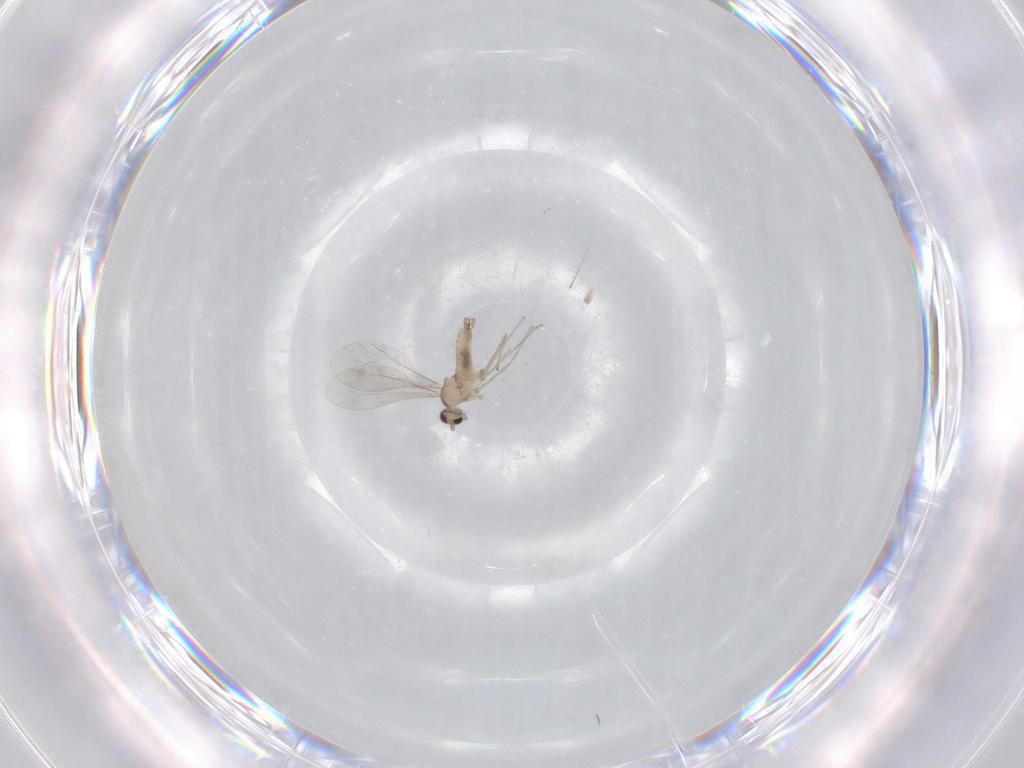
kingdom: Animalia
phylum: Arthropoda
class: Insecta
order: Diptera
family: Cecidomyiidae
